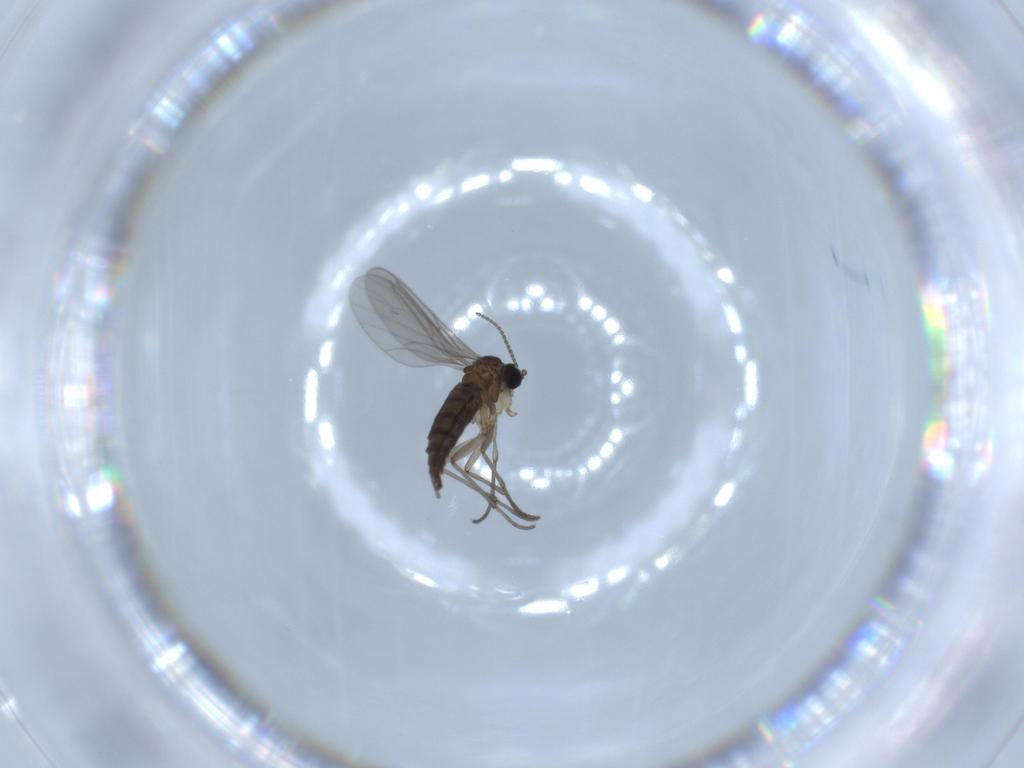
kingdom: Animalia
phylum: Arthropoda
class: Insecta
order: Diptera
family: Sciaridae
